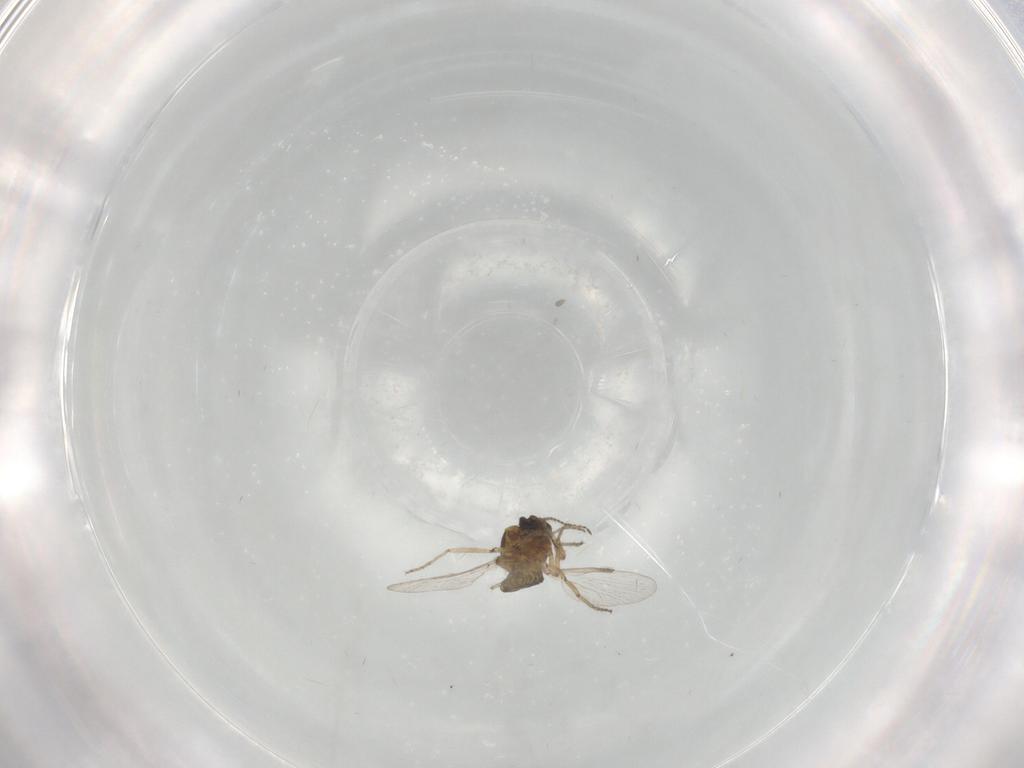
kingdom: Animalia
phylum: Arthropoda
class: Insecta
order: Diptera
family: Ceratopogonidae
